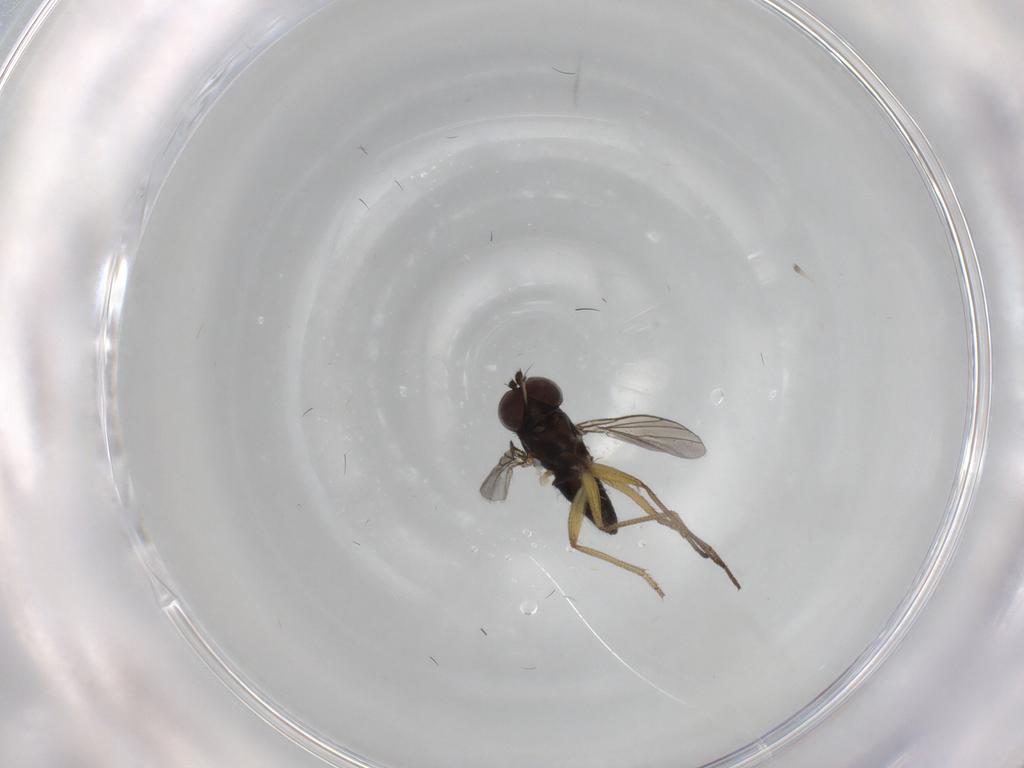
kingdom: Animalia
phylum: Arthropoda
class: Insecta
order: Diptera
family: Dolichopodidae
